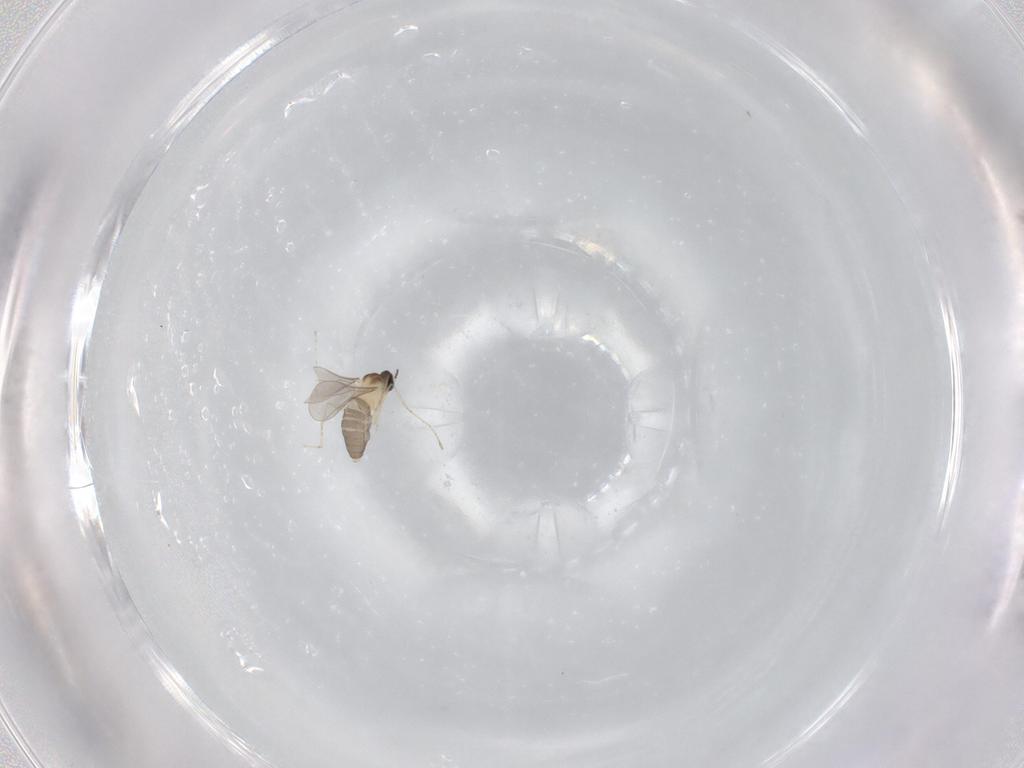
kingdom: Animalia
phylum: Arthropoda
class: Insecta
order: Diptera
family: Cecidomyiidae
